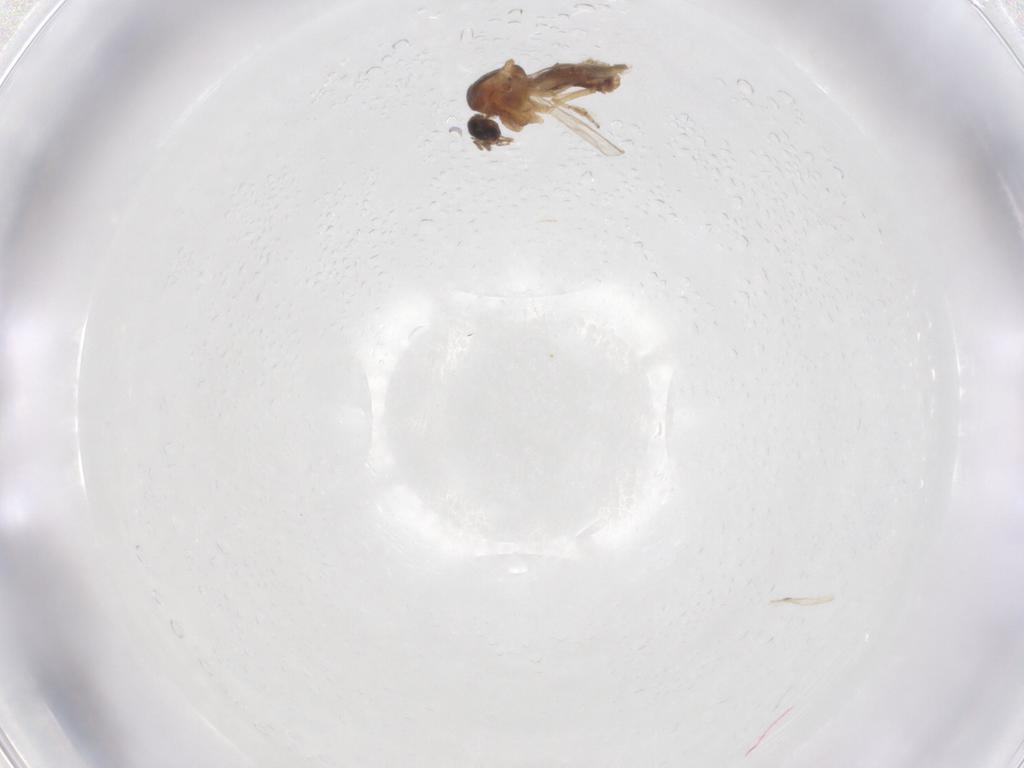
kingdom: Animalia
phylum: Arthropoda
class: Insecta
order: Diptera
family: Ceratopogonidae
